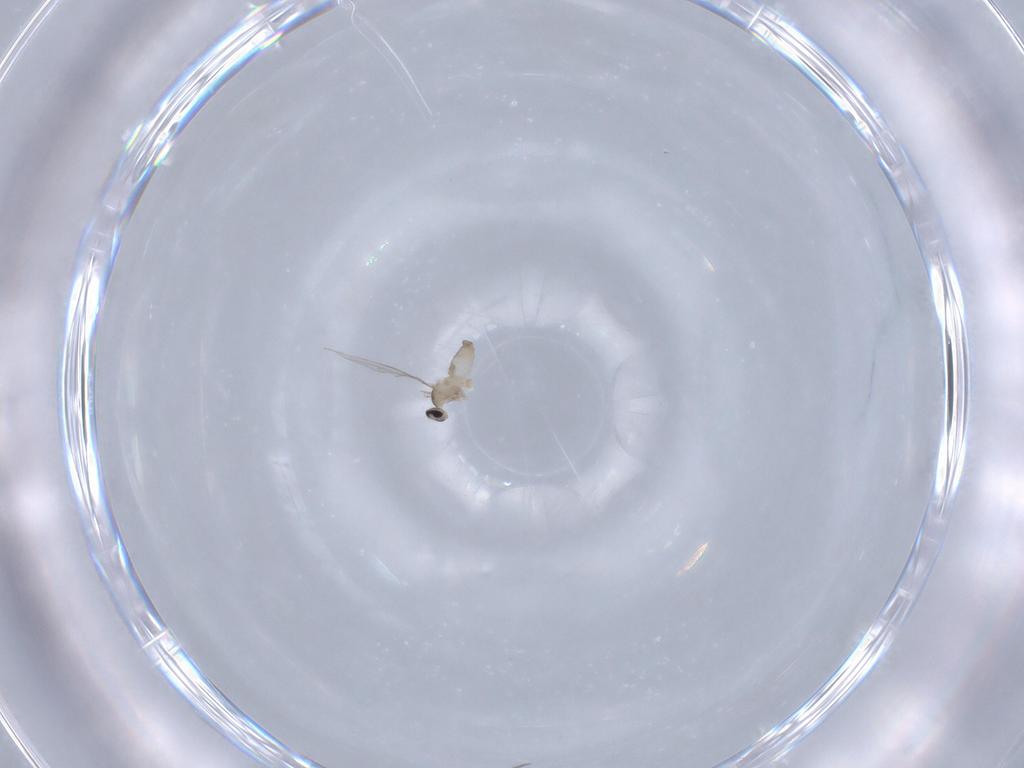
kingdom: Animalia
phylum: Arthropoda
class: Insecta
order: Diptera
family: Cecidomyiidae
